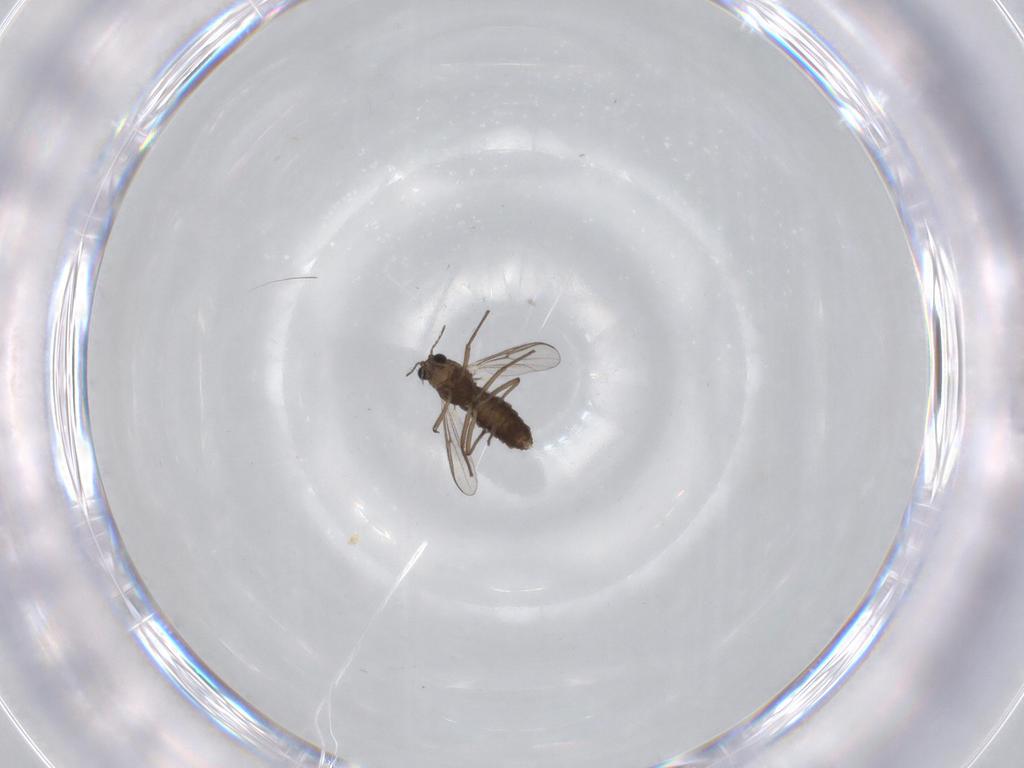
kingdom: Animalia
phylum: Arthropoda
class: Insecta
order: Diptera
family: Chironomidae
